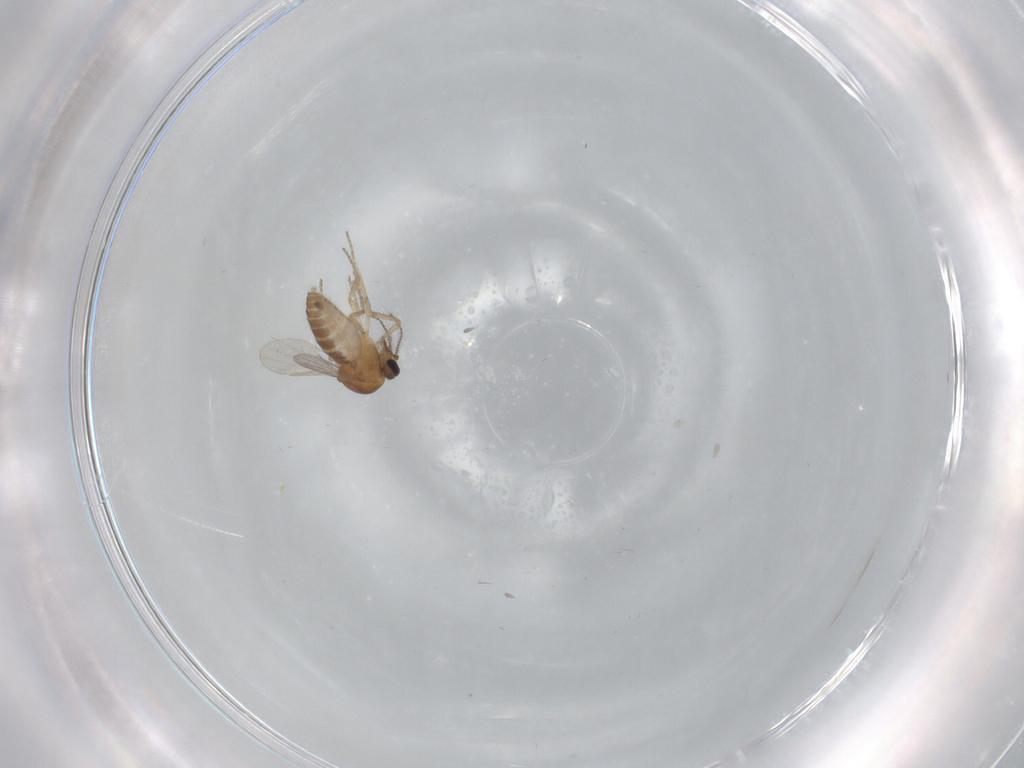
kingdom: Animalia
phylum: Arthropoda
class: Insecta
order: Diptera
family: Ceratopogonidae
